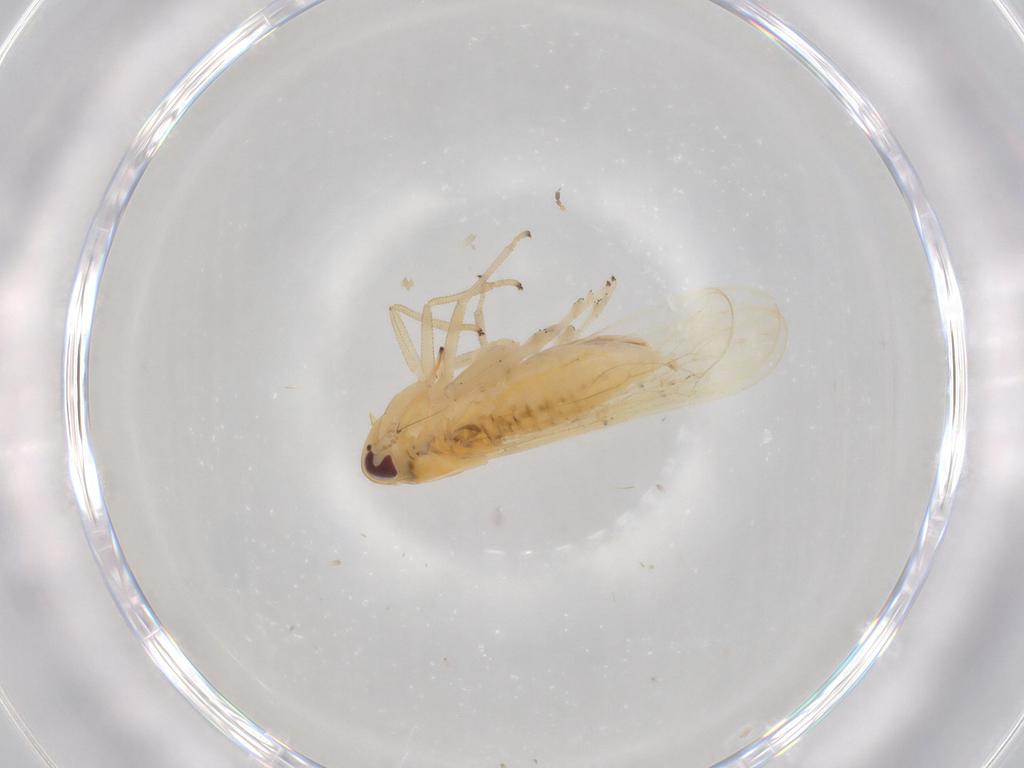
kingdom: Animalia
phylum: Arthropoda
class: Insecta
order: Hemiptera
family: Delphacidae
